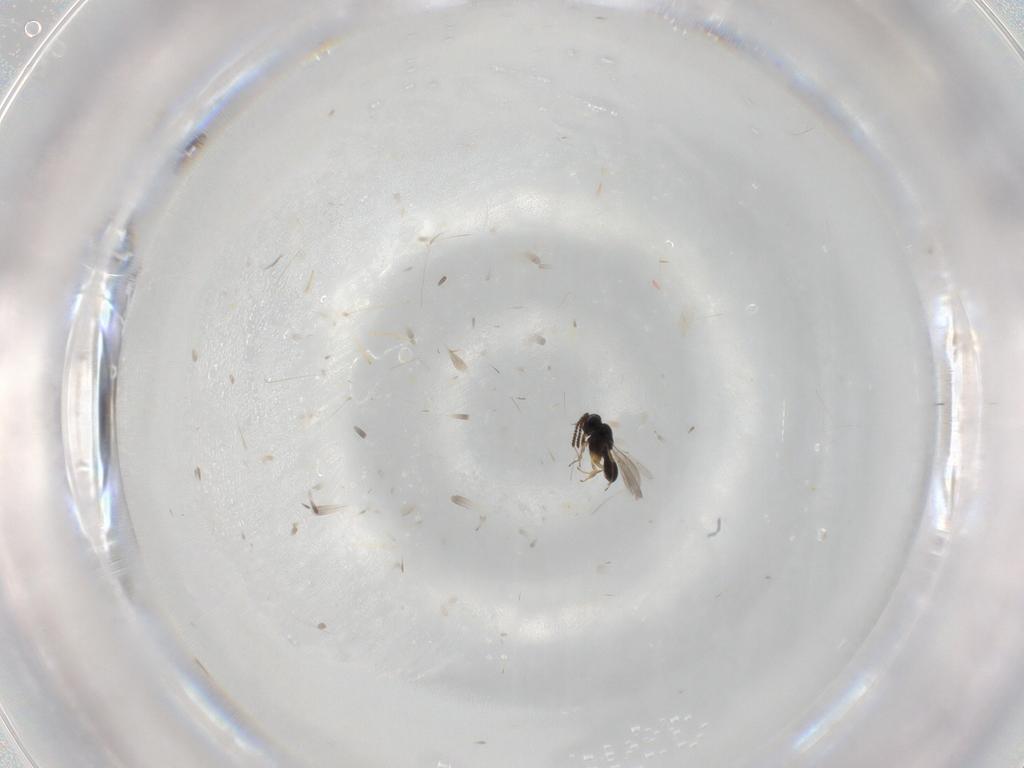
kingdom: Animalia
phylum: Arthropoda
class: Insecta
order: Hymenoptera
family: Scelionidae
